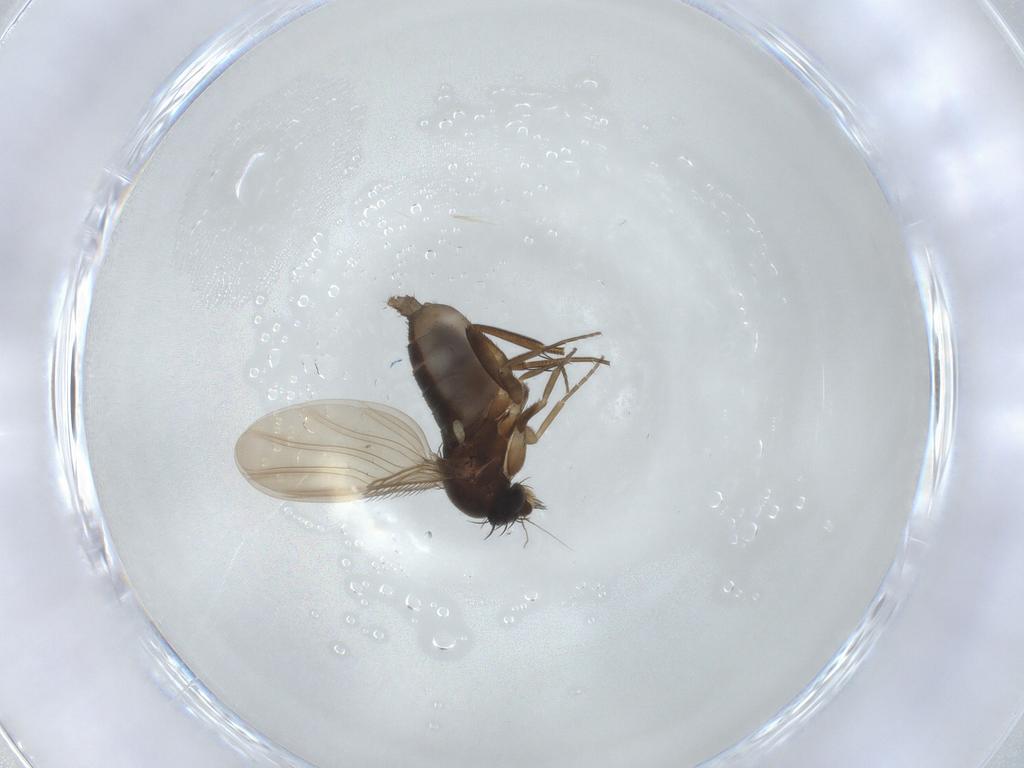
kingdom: Animalia
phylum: Arthropoda
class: Insecta
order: Diptera
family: Phoridae
